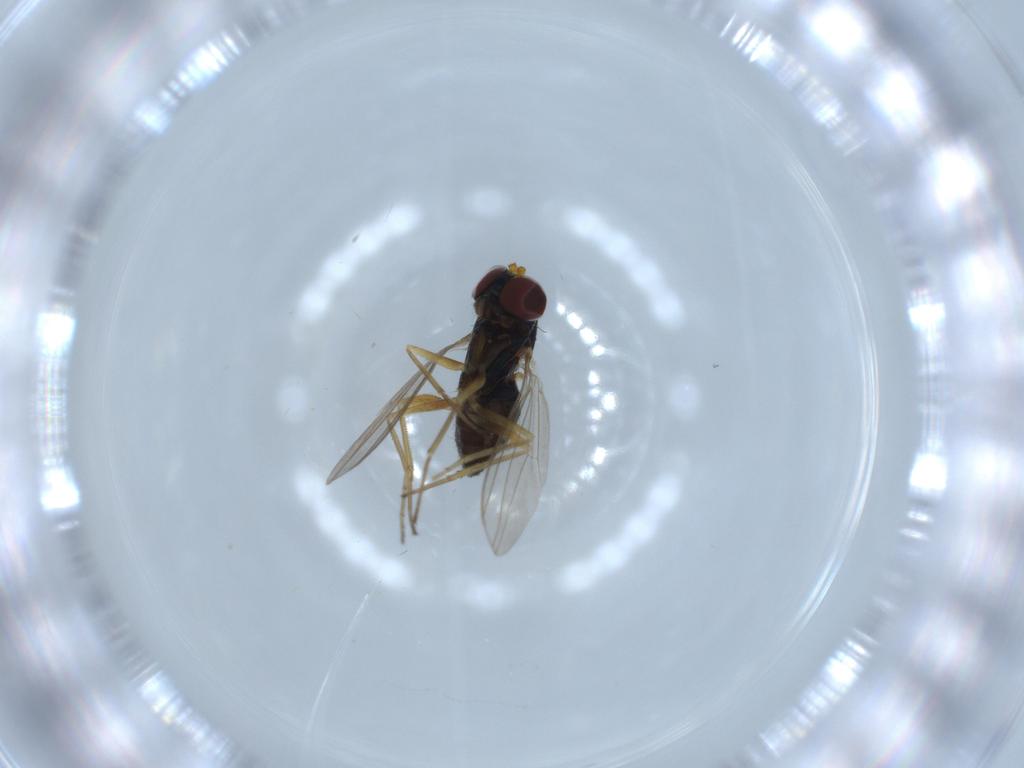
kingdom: Animalia
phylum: Arthropoda
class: Insecta
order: Diptera
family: Dolichopodidae
